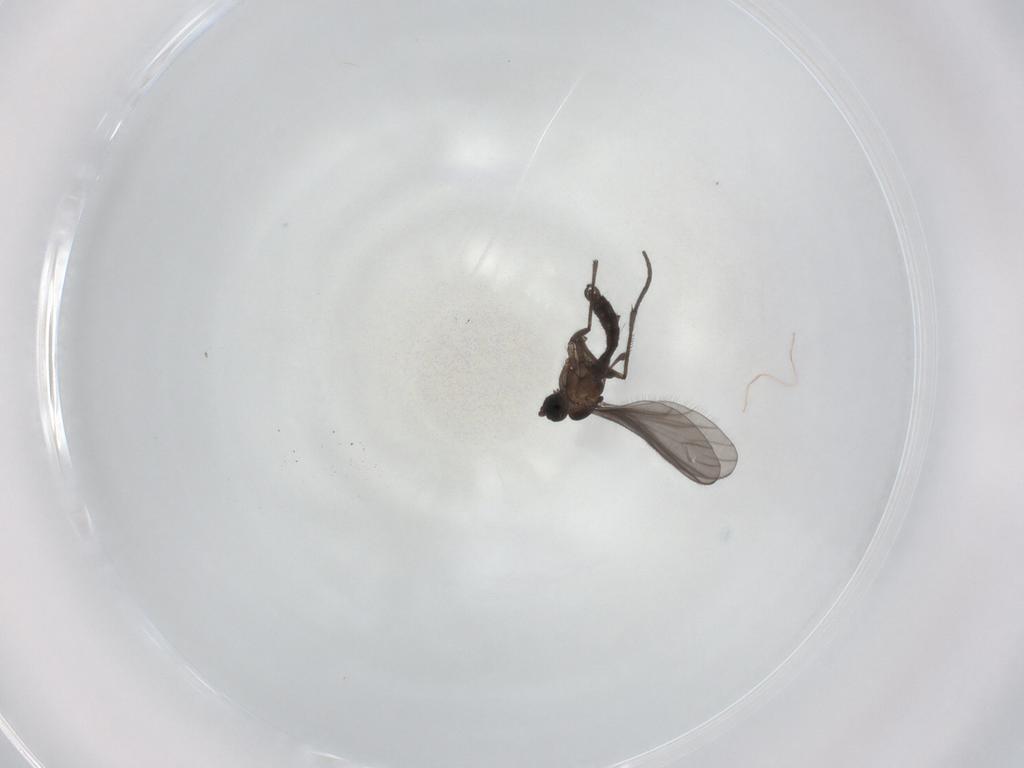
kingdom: Animalia
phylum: Arthropoda
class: Insecta
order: Diptera
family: Sciaridae
